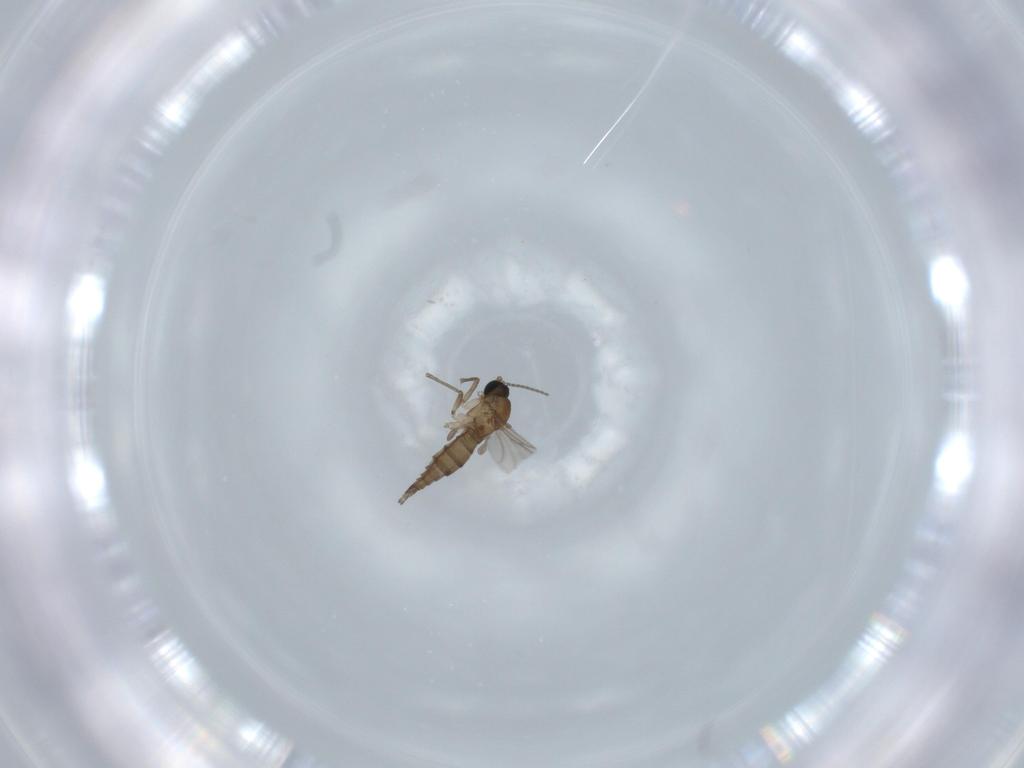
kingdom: Animalia
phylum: Arthropoda
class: Insecta
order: Diptera
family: Sciaridae
